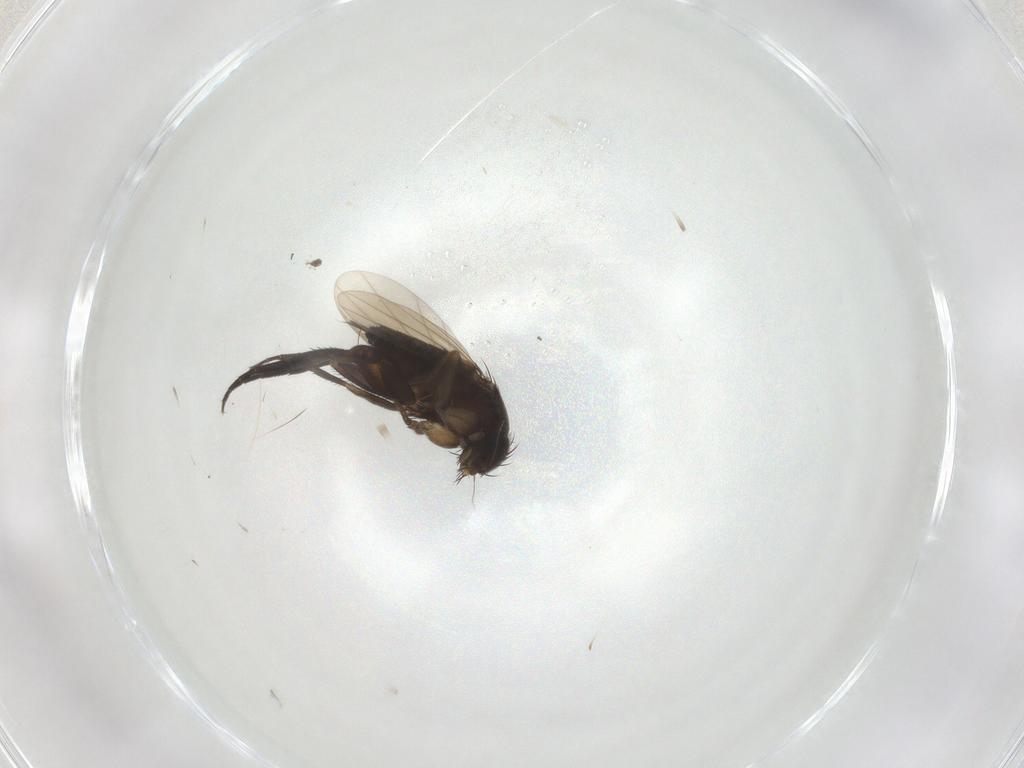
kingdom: Animalia
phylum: Arthropoda
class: Insecta
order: Diptera
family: Phoridae
